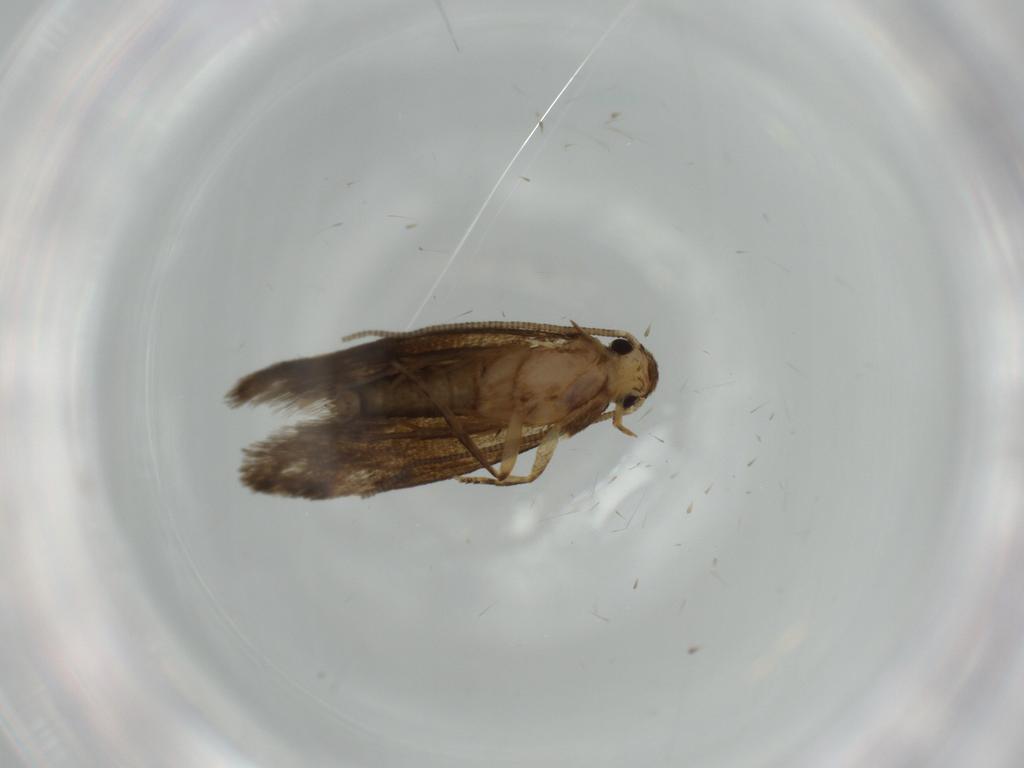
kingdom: Animalia
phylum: Arthropoda
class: Insecta
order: Lepidoptera
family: Tineidae
